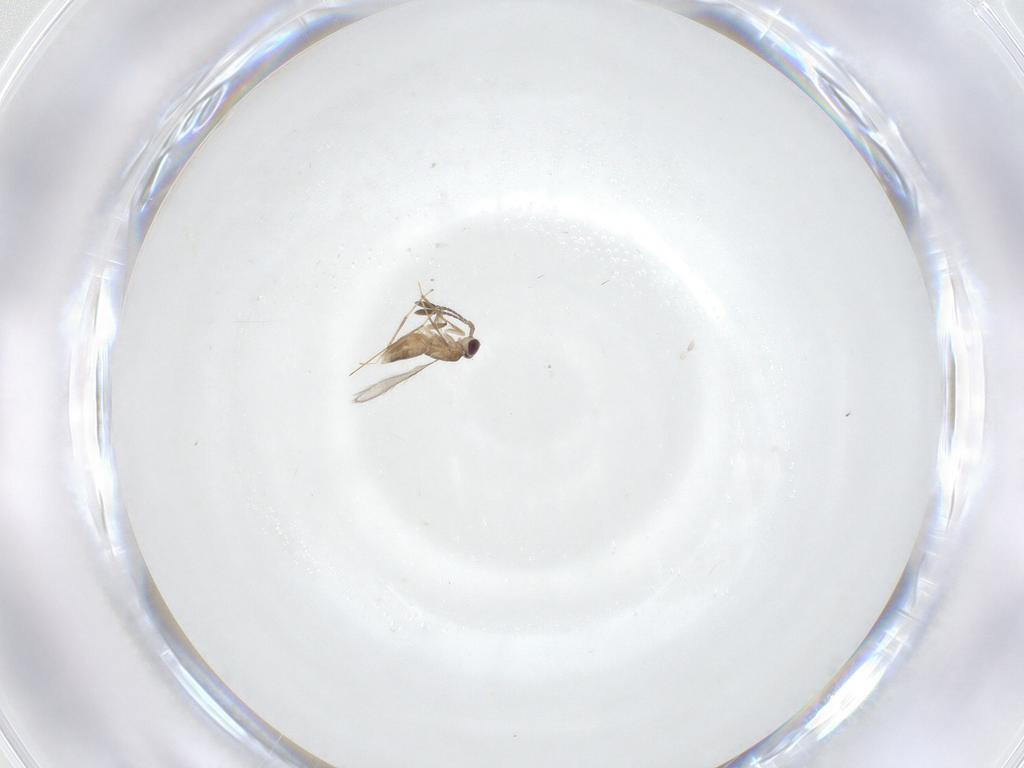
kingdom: Animalia
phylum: Arthropoda
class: Insecta
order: Hymenoptera
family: Mymaridae
